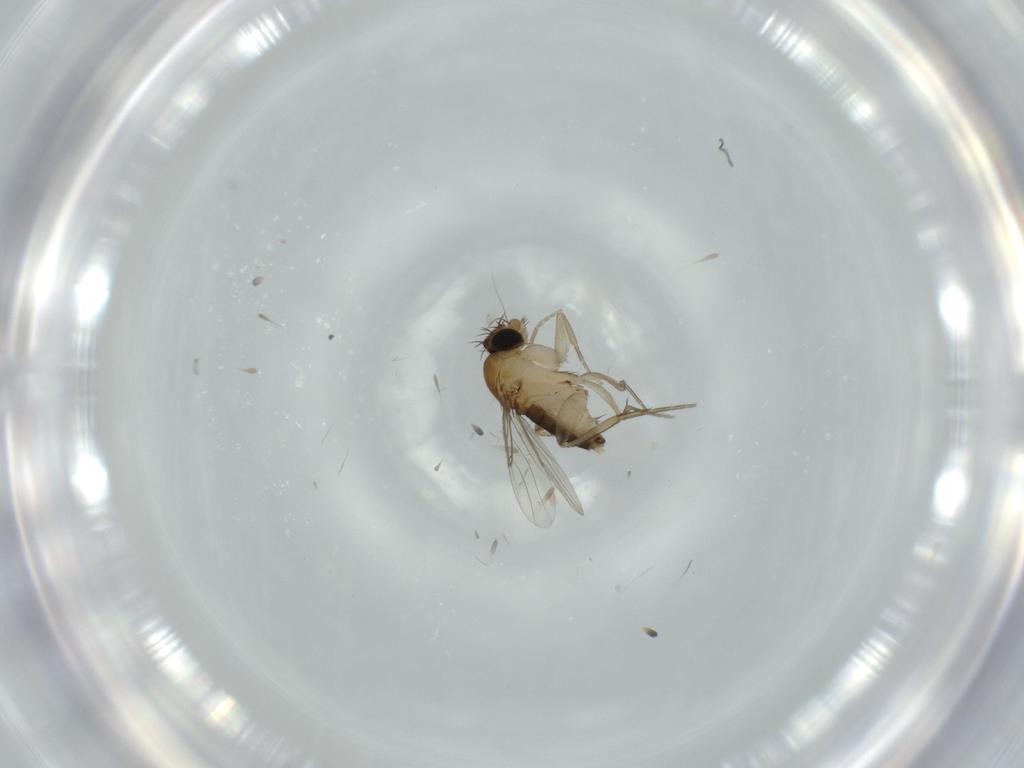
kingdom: Animalia
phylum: Arthropoda
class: Insecta
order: Diptera
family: Phoridae
